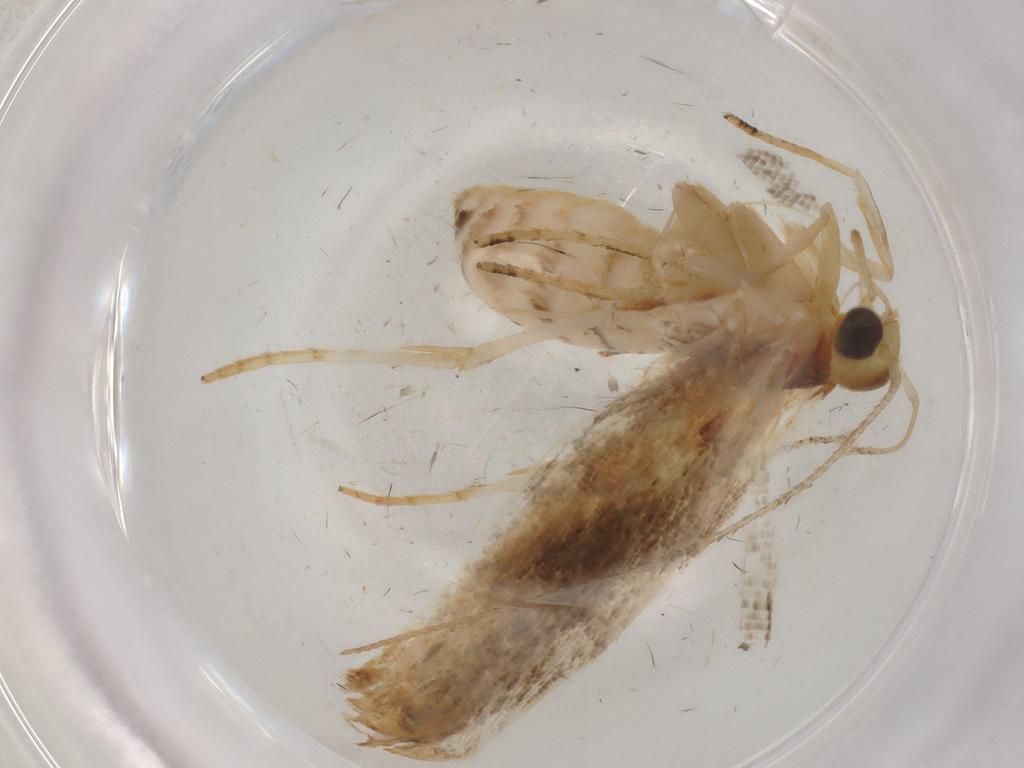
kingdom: Animalia
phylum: Arthropoda
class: Insecta
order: Lepidoptera
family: Gelechiidae
